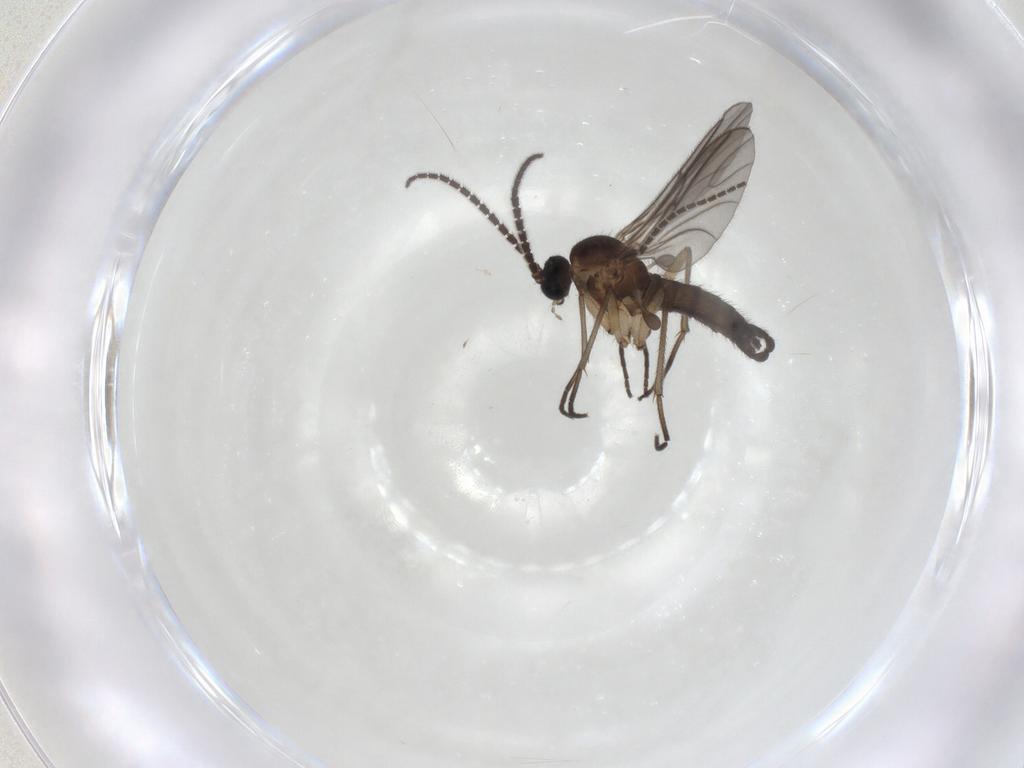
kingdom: Animalia
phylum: Arthropoda
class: Insecta
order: Diptera
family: Sciaridae
